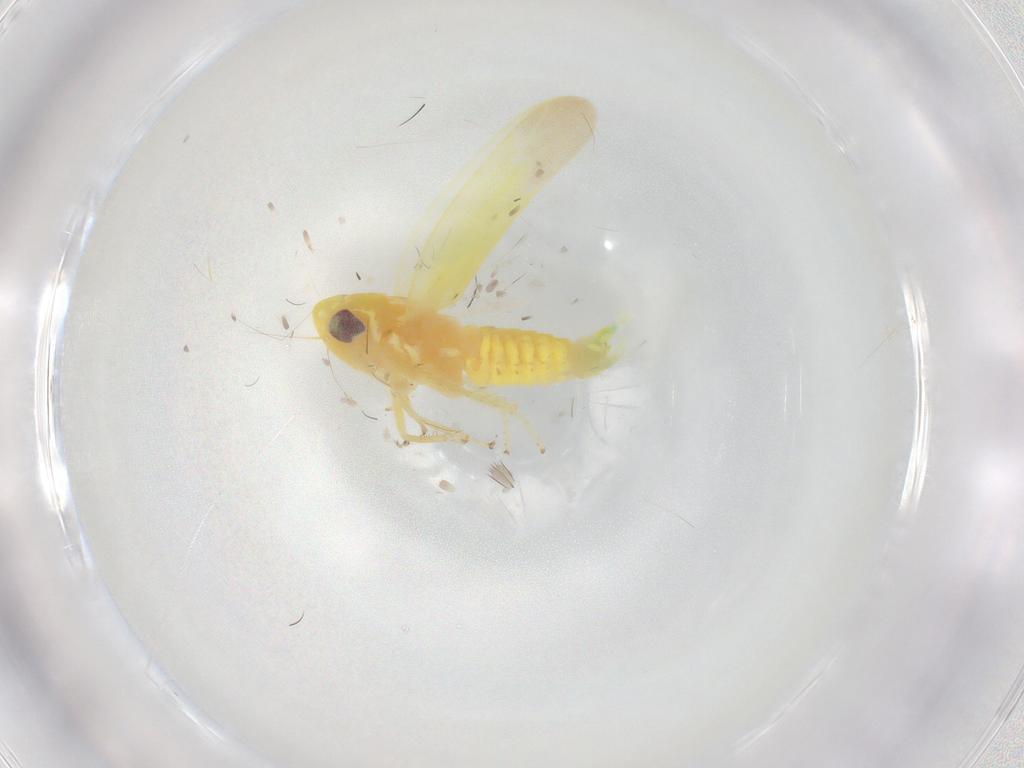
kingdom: Animalia
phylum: Arthropoda
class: Insecta
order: Hemiptera
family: Cicadellidae
